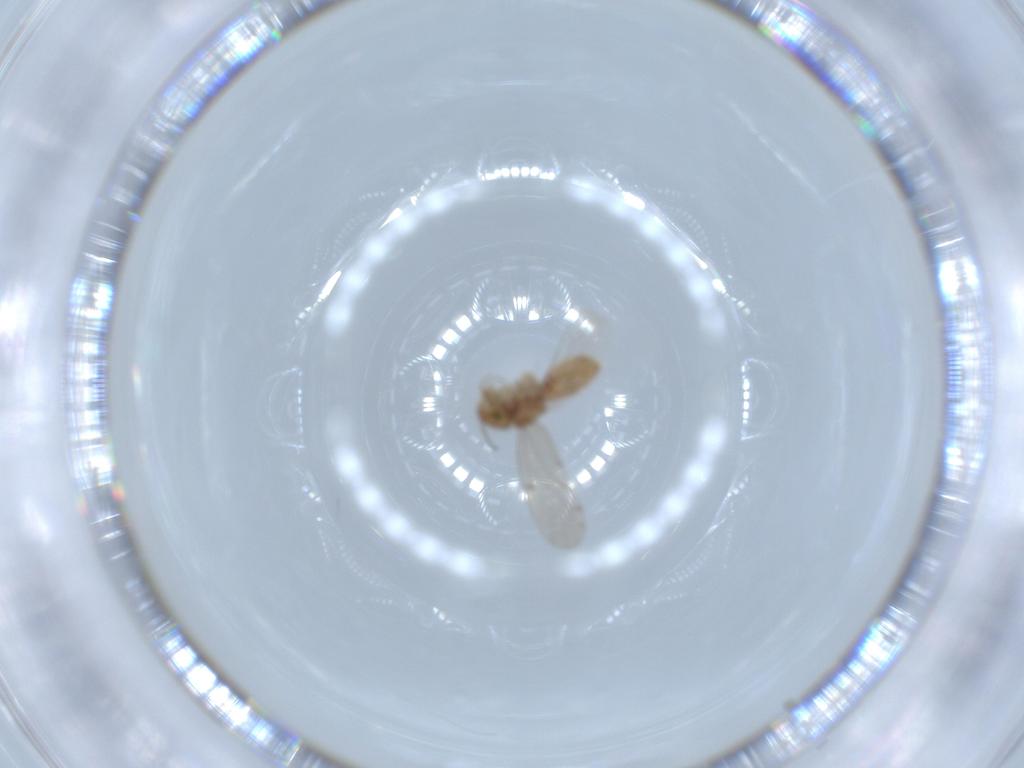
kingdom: Animalia
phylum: Arthropoda
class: Insecta
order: Psocodea
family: Ectopsocidae
